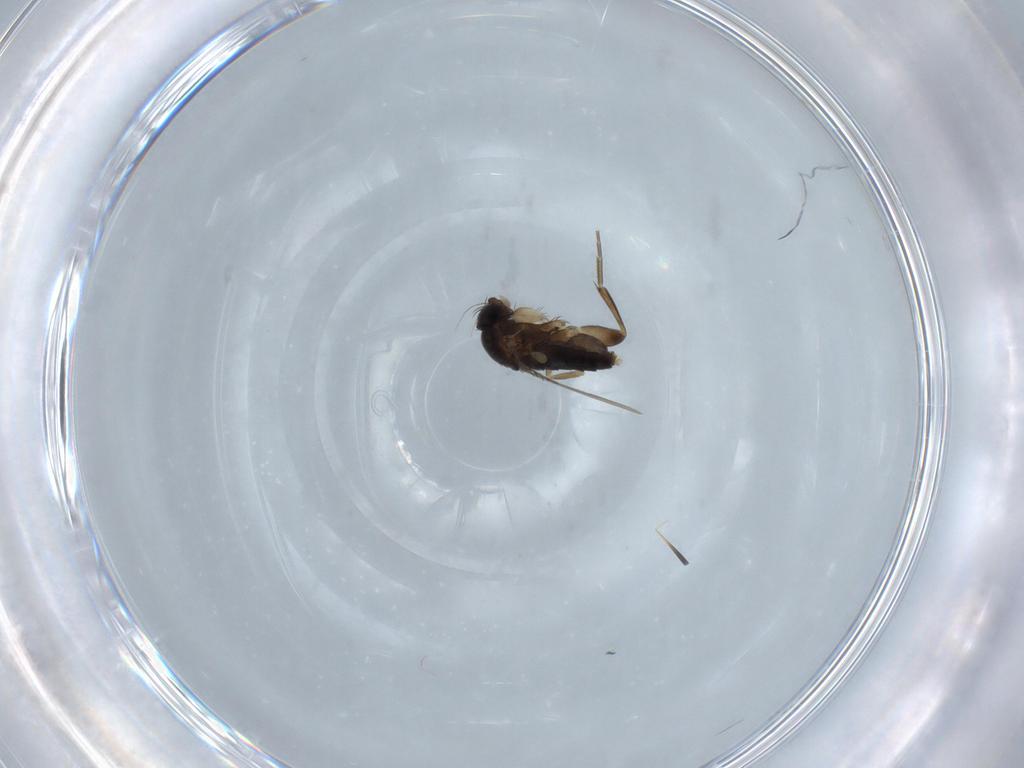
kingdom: Animalia
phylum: Arthropoda
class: Insecta
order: Diptera
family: Phoridae
